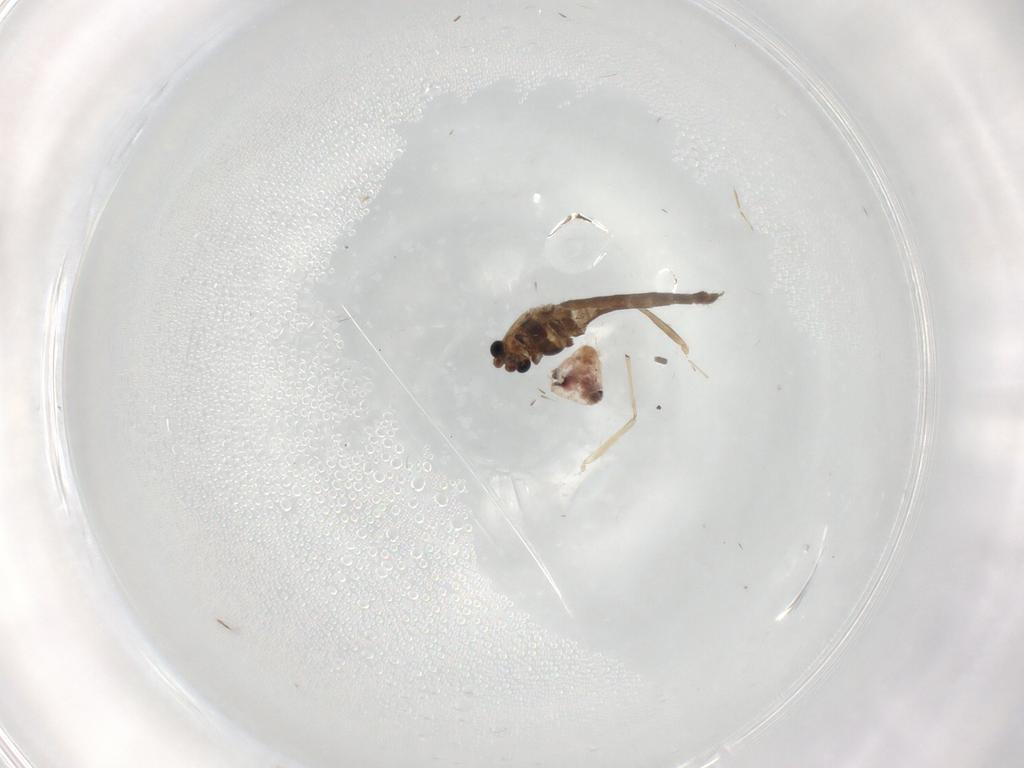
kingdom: Animalia
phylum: Arthropoda
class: Insecta
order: Diptera
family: Chironomidae
